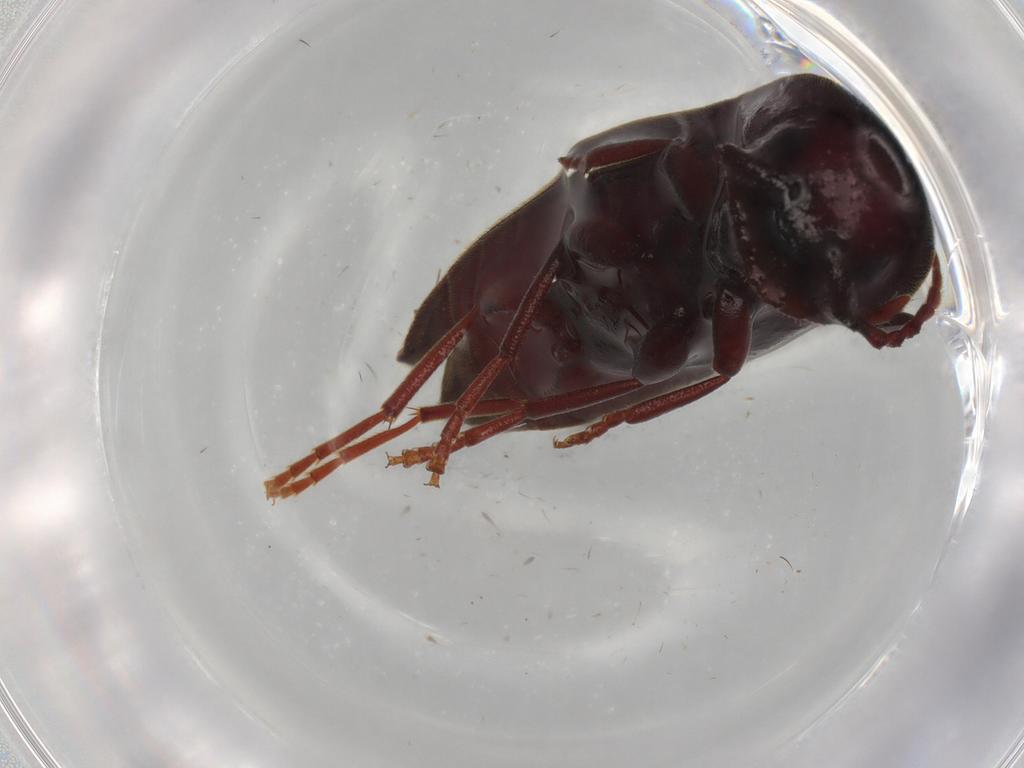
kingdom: Animalia
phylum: Arthropoda
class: Insecta
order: Coleoptera
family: Eucnemidae
